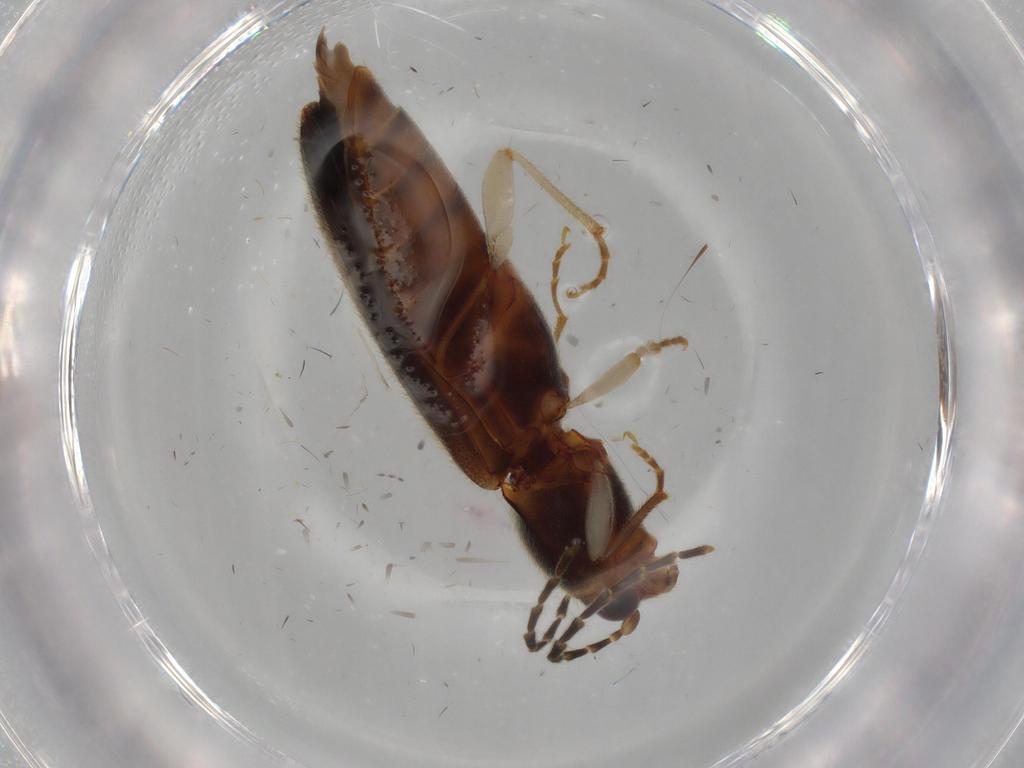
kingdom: Animalia
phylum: Arthropoda
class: Insecta
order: Coleoptera
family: Elateridae
